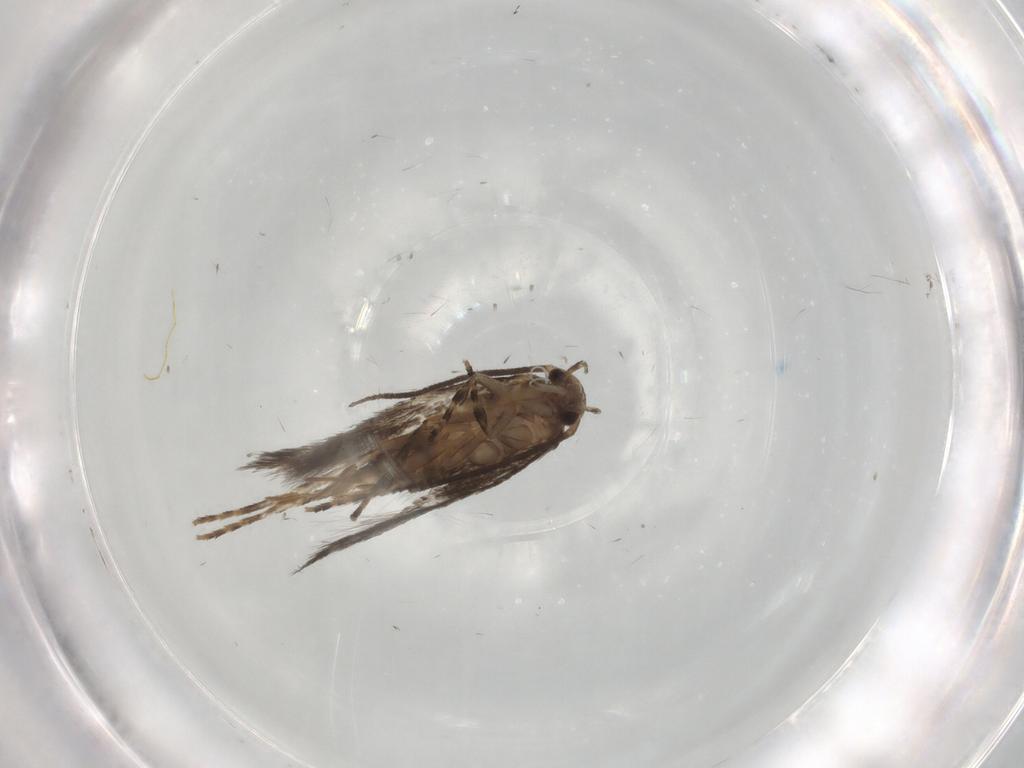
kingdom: Animalia
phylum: Arthropoda
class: Insecta
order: Lepidoptera
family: Elachistidae
